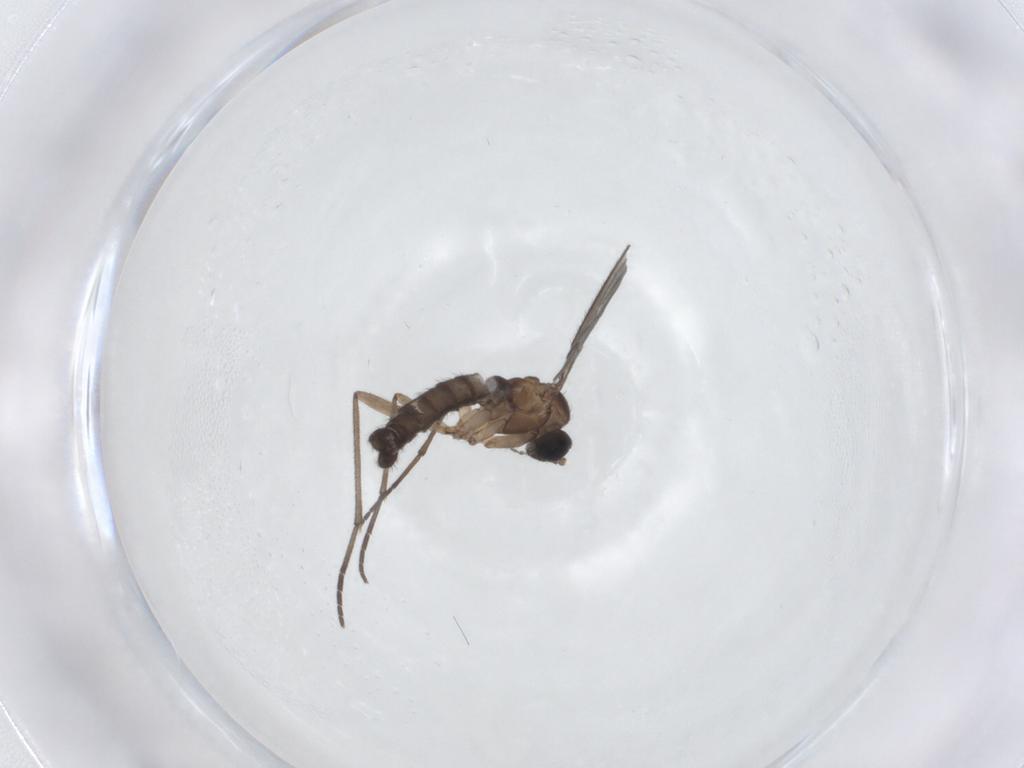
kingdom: Animalia
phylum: Arthropoda
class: Insecta
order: Diptera
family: Sciaridae
